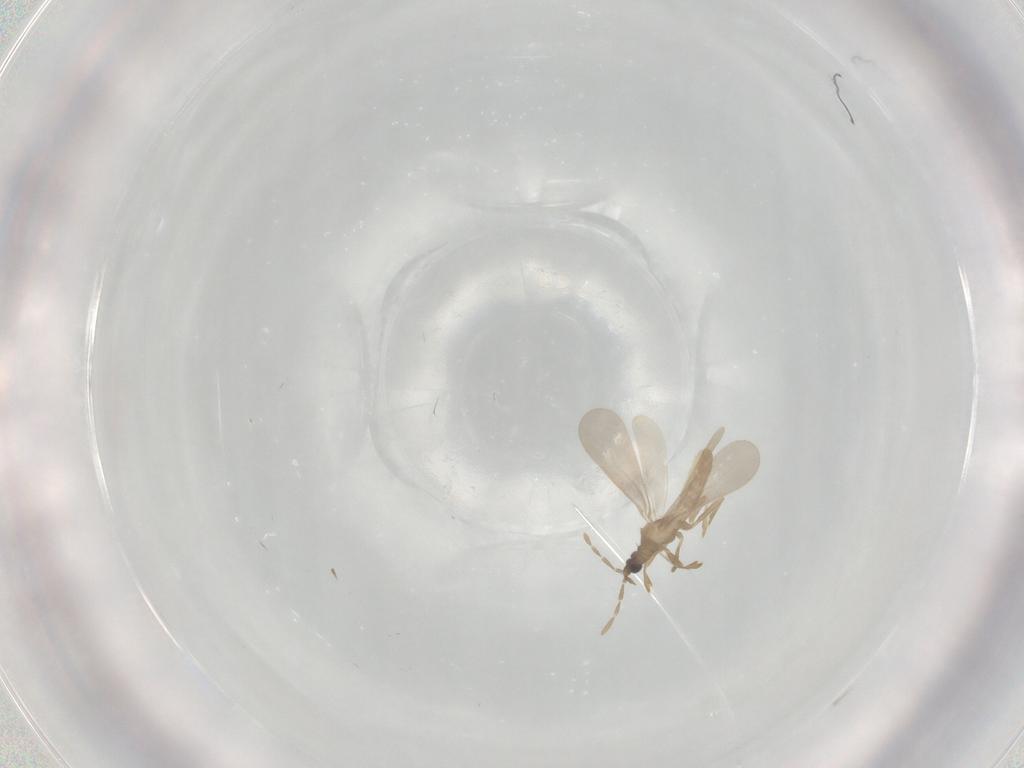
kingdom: Animalia
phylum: Arthropoda
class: Insecta
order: Hemiptera
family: Enicocephalidae
